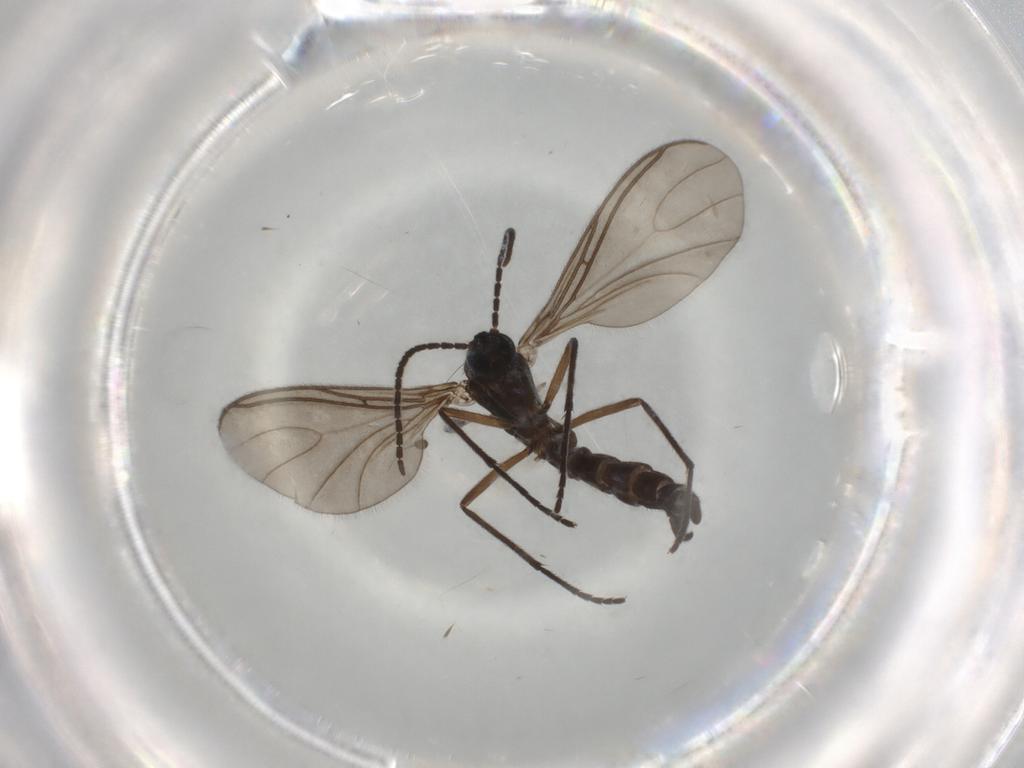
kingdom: Animalia
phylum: Arthropoda
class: Insecta
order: Diptera
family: Sciaridae
